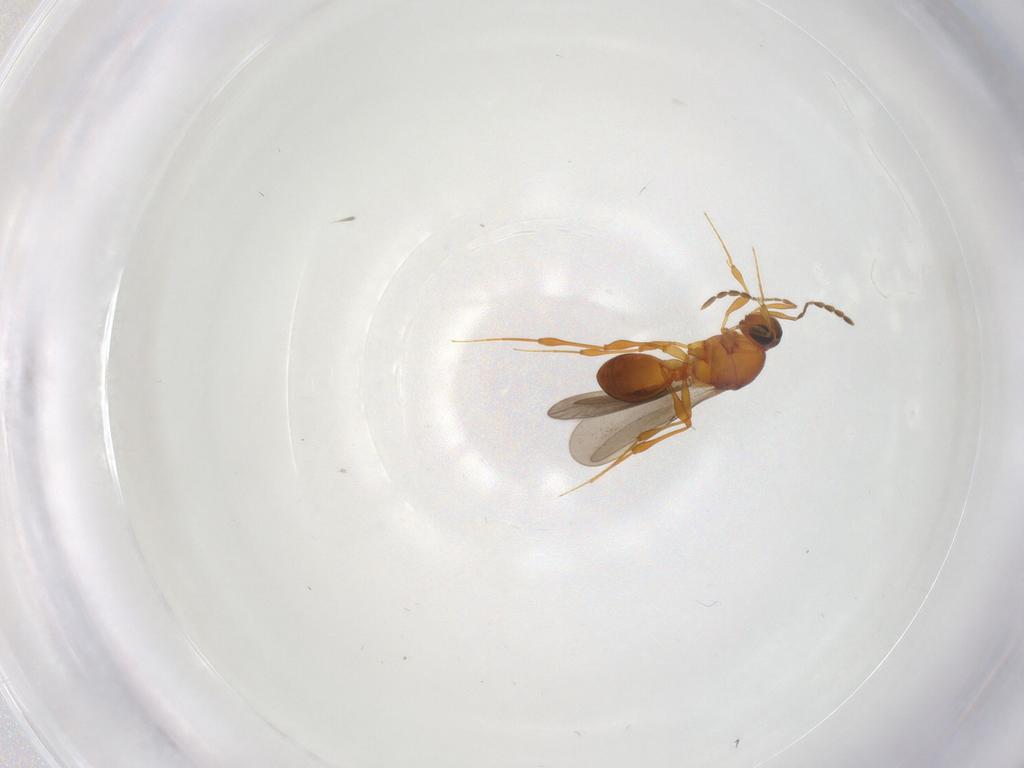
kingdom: Animalia
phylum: Arthropoda
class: Insecta
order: Hymenoptera
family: Platygastridae
